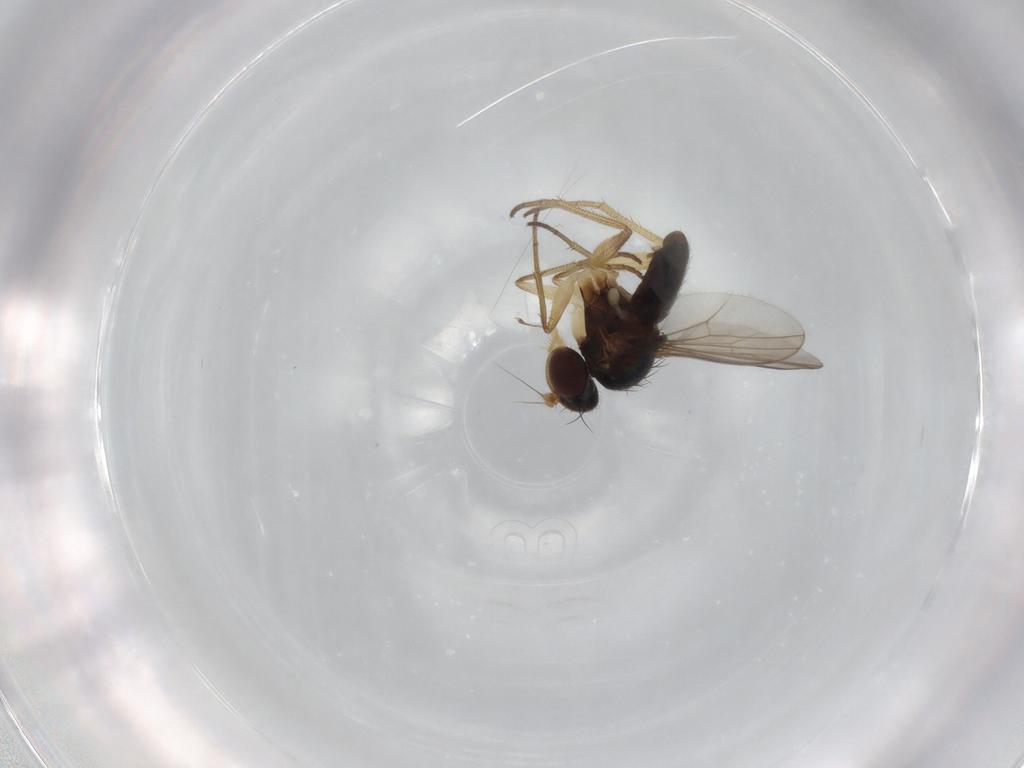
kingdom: Animalia
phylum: Arthropoda
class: Insecta
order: Diptera
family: Dolichopodidae
